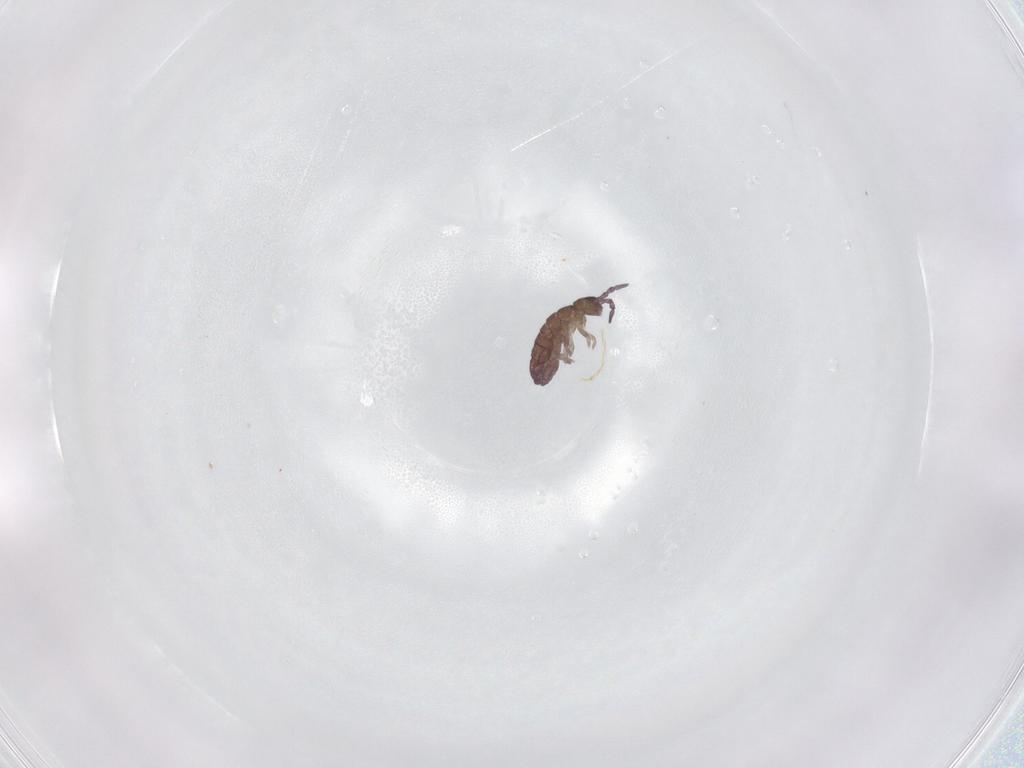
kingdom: Animalia
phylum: Arthropoda
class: Collembola
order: Entomobryomorpha
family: Isotomidae
